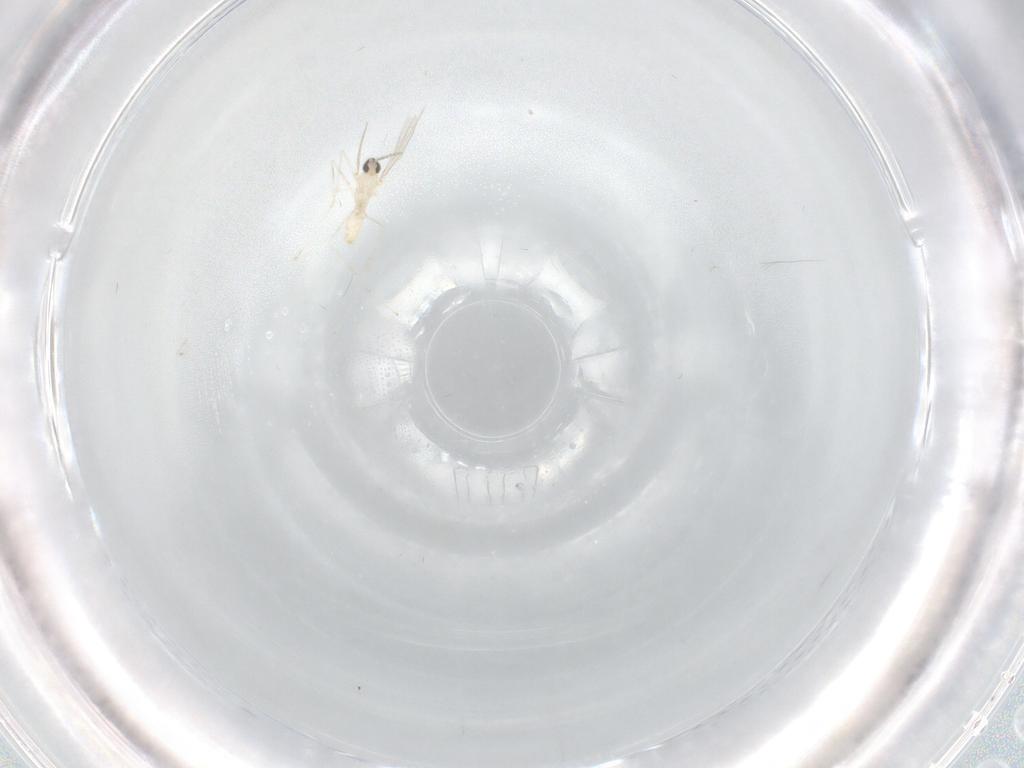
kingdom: Animalia
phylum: Arthropoda
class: Insecta
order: Diptera
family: Cecidomyiidae
